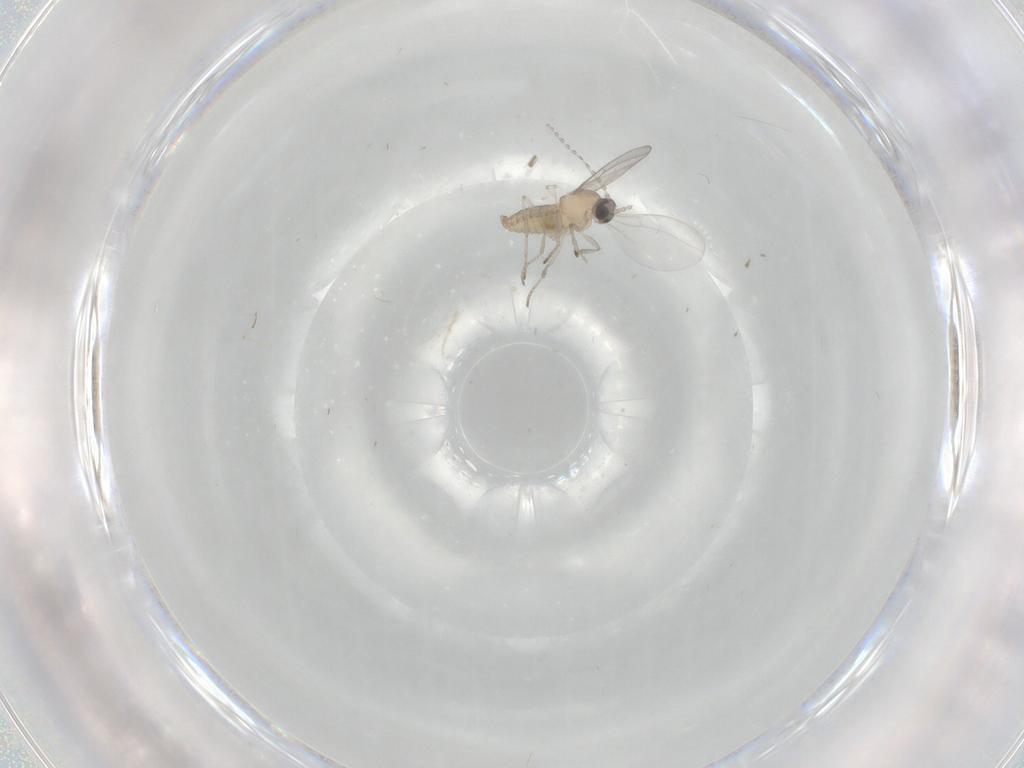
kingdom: Animalia
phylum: Arthropoda
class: Insecta
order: Diptera
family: Cecidomyiidae
